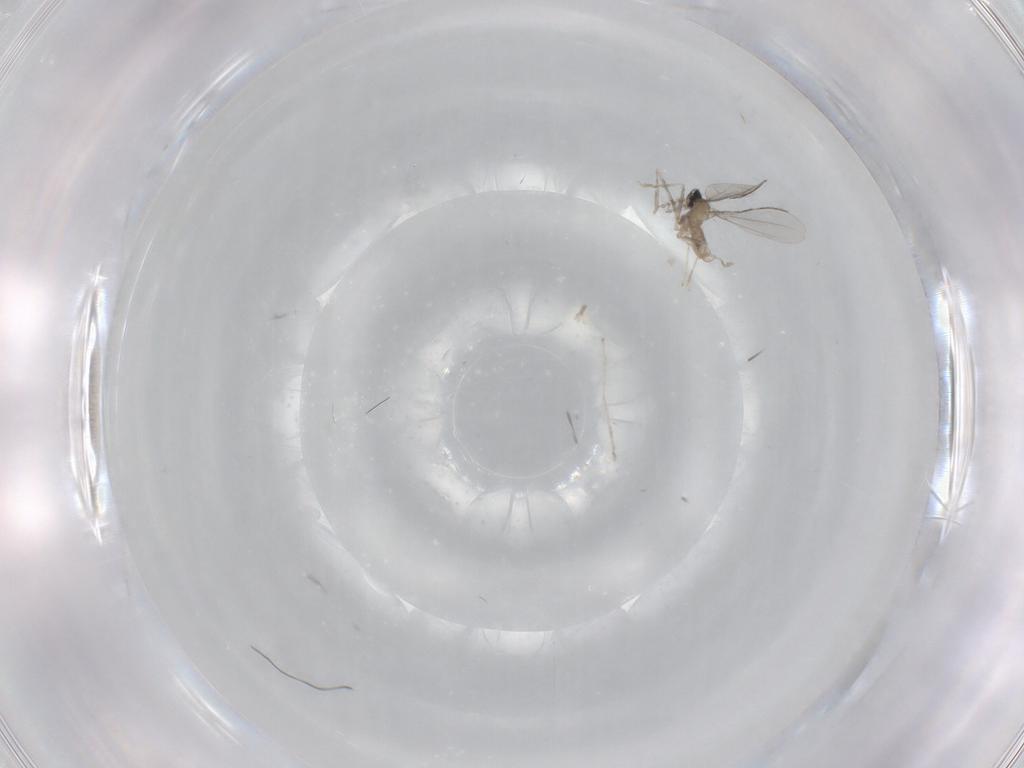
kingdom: Animalia
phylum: Arthropoda
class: Insecta
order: Diptera
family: Cecidomyiidae
